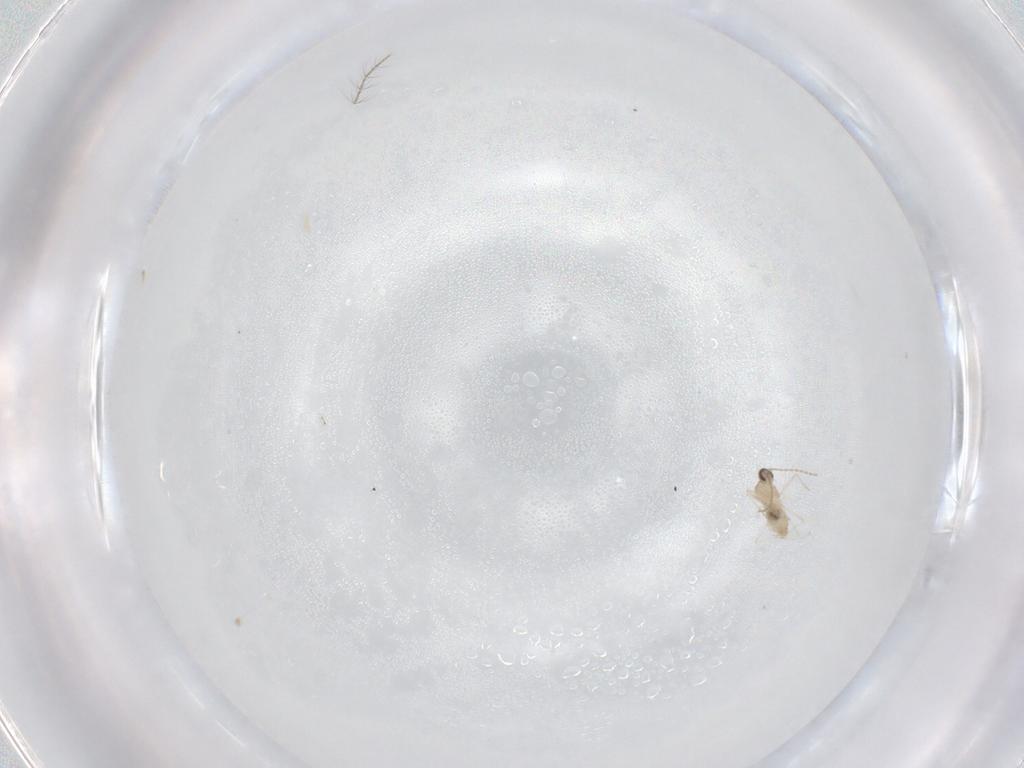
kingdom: Animalia
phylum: Arthropoda
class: Insecta
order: Diptera
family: Cecidomyiidae
